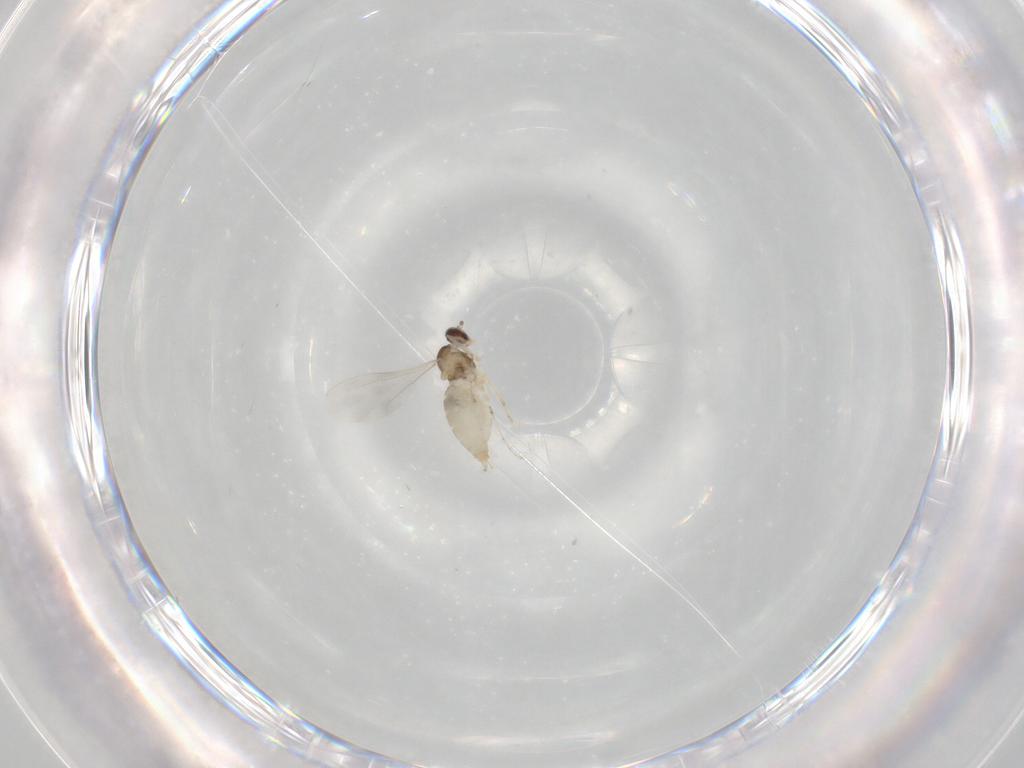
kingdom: Animalia
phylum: Arthropoda
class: Insecta
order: Diptera
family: Cecidomyiidae
